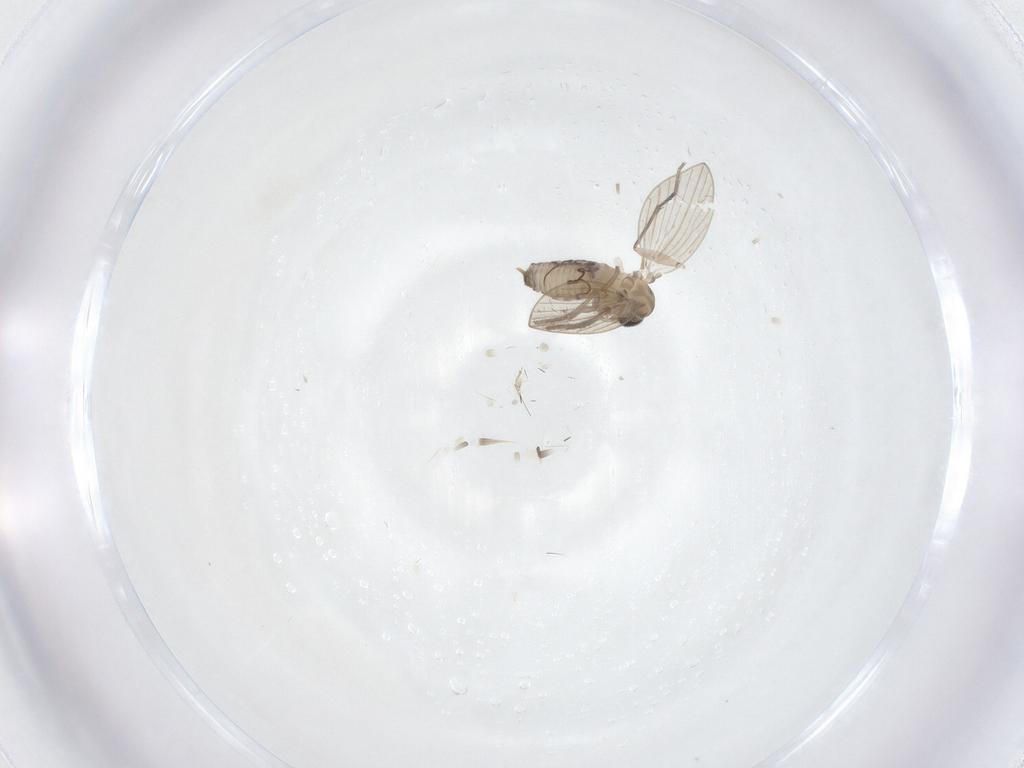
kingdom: Animalia
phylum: Arthropoda
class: Insecta
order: Diptera
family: Psychodidae
